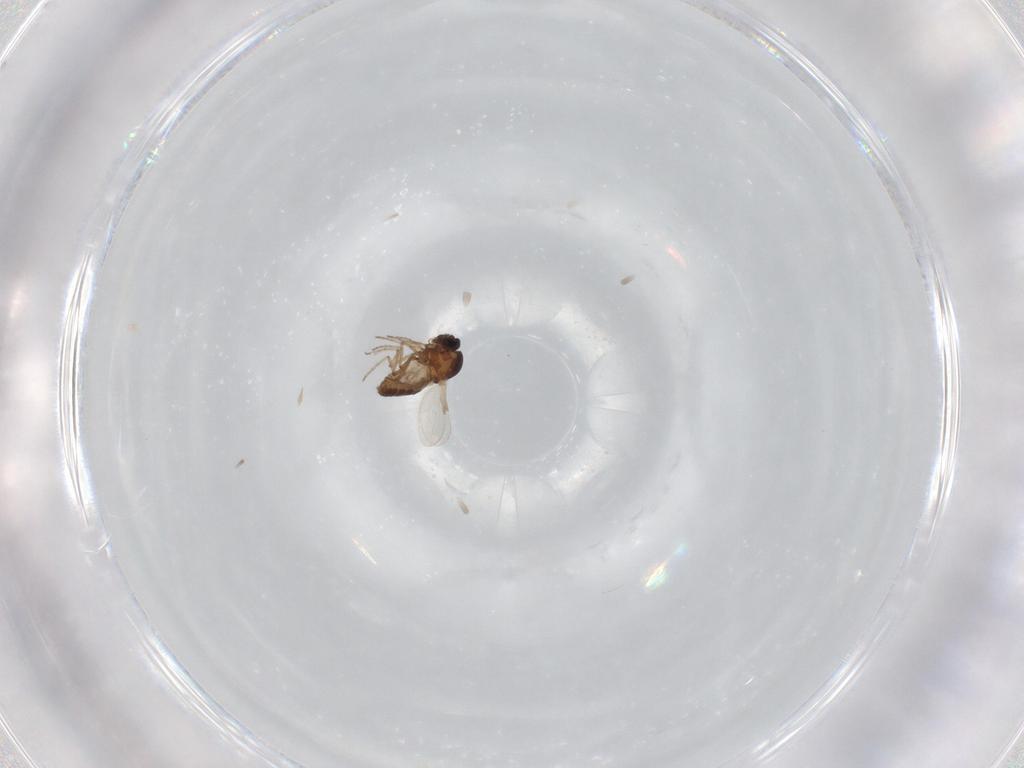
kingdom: Animalia
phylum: Arthropoda
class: Insecta
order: Diptera
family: Ceratopogonidae
